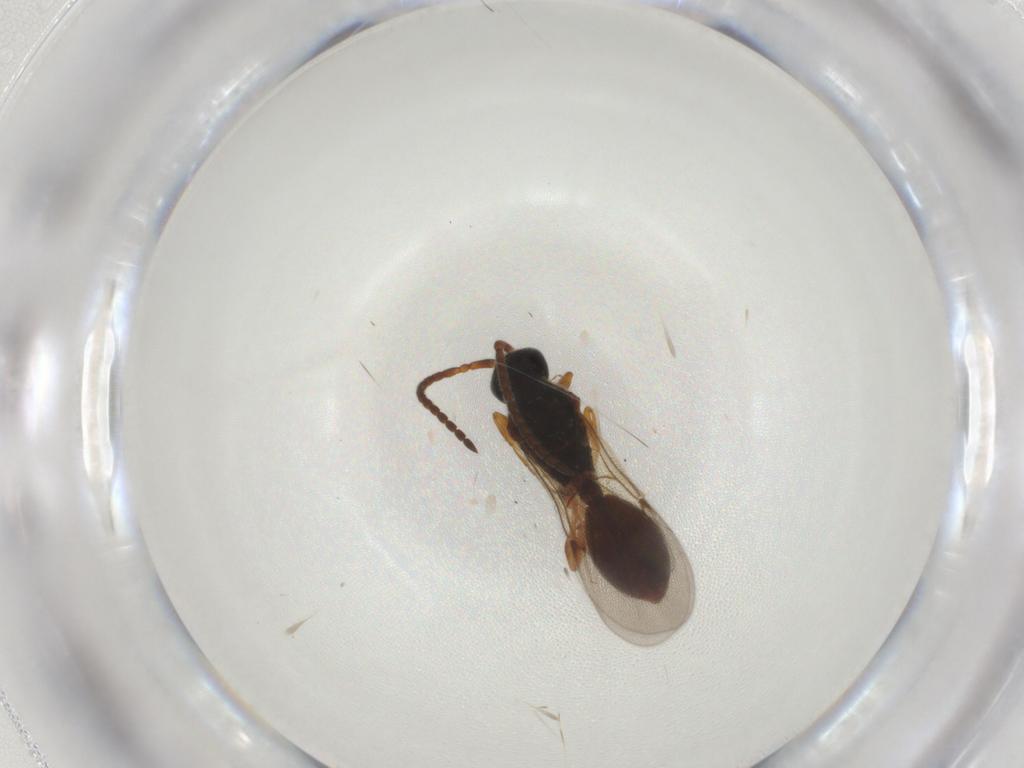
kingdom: Animalia
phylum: Arthropoda
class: Insecta
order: Hymenoptera
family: Diapriidae
